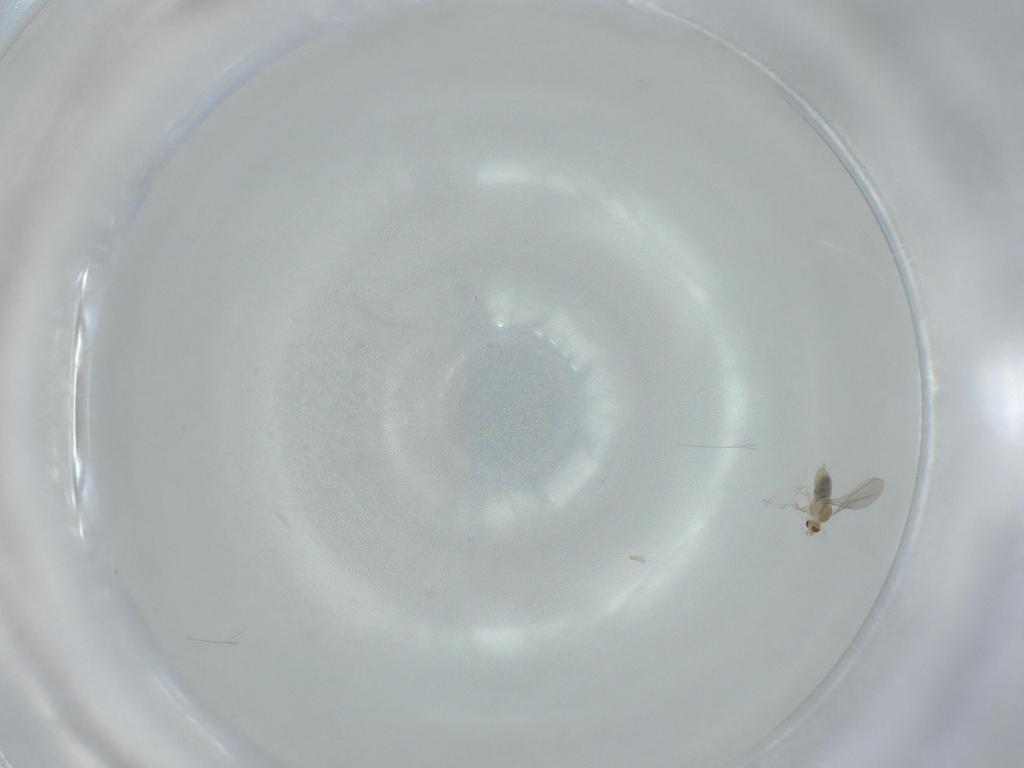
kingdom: Animalia
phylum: Arthropoda
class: Insecta
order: Diptera
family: Cecidomyiidae
